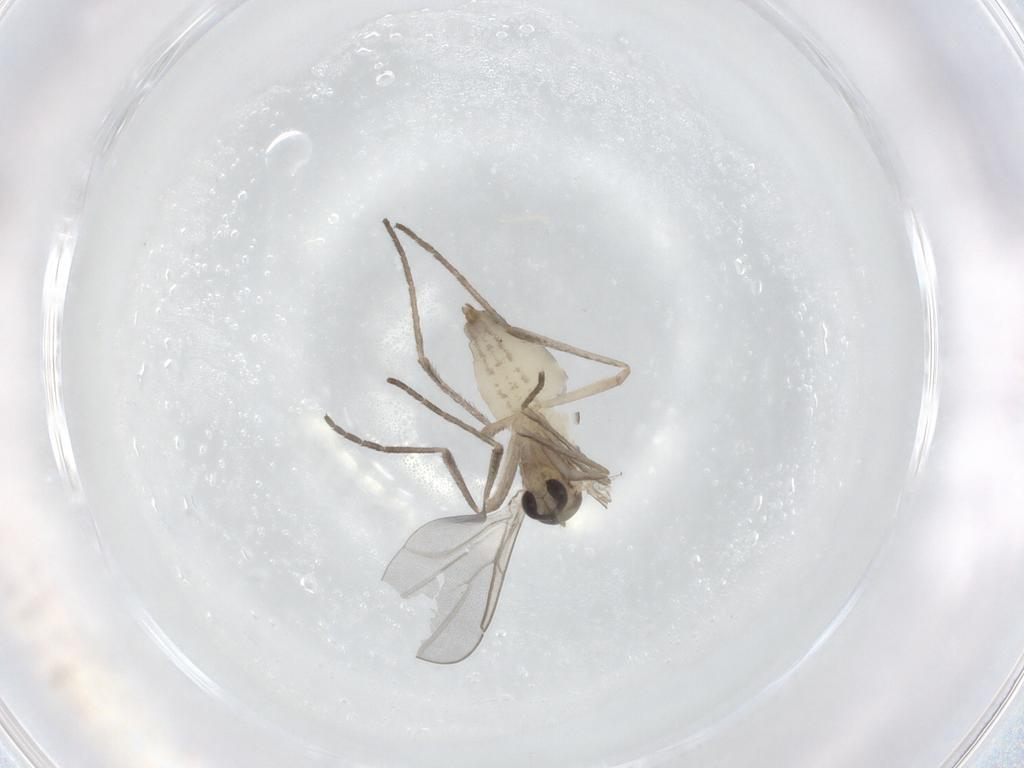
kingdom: Animalia
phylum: Arthropoda
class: Insecta
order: Diptera
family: Cecidomyiidae
